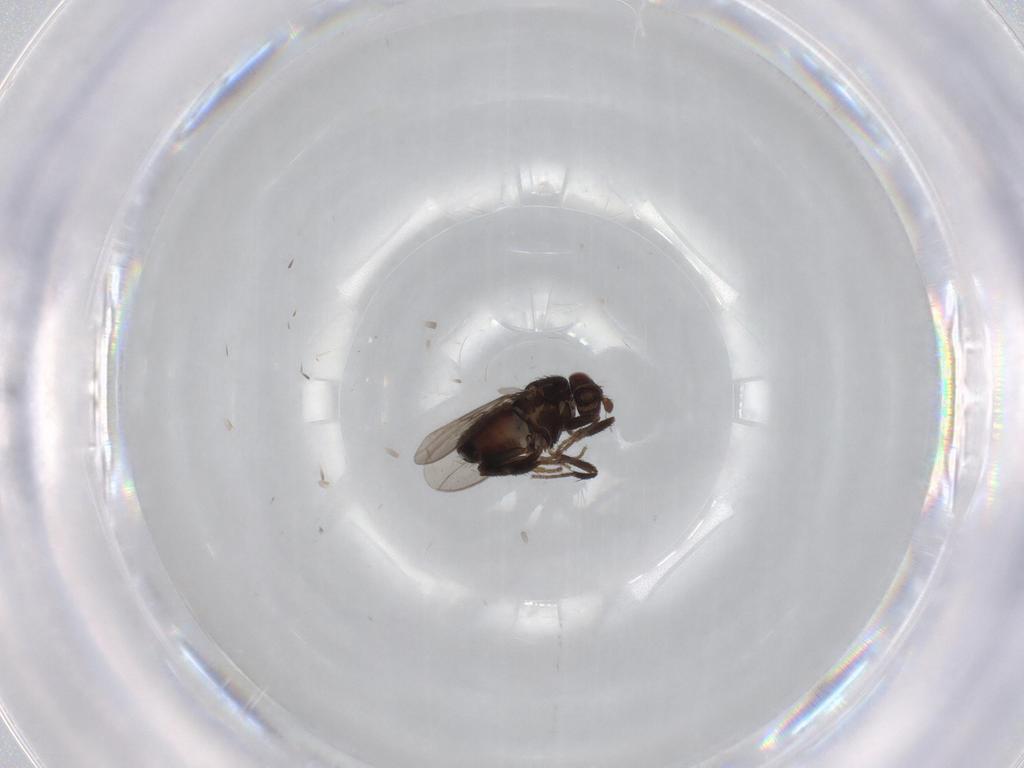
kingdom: Animalia
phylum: Arthropoda
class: Insecta
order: Diptera
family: Sphaeroceridae
